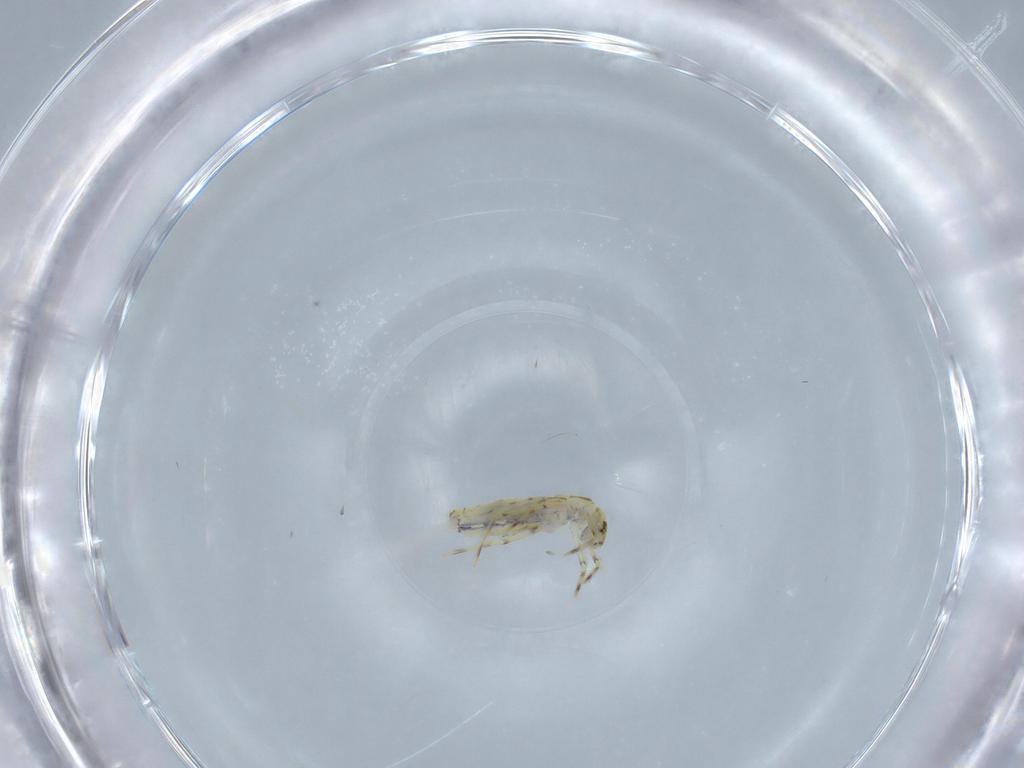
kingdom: Animalia
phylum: Arthropoda
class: Collembola
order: Entomobryomorpha
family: Paronellidae
